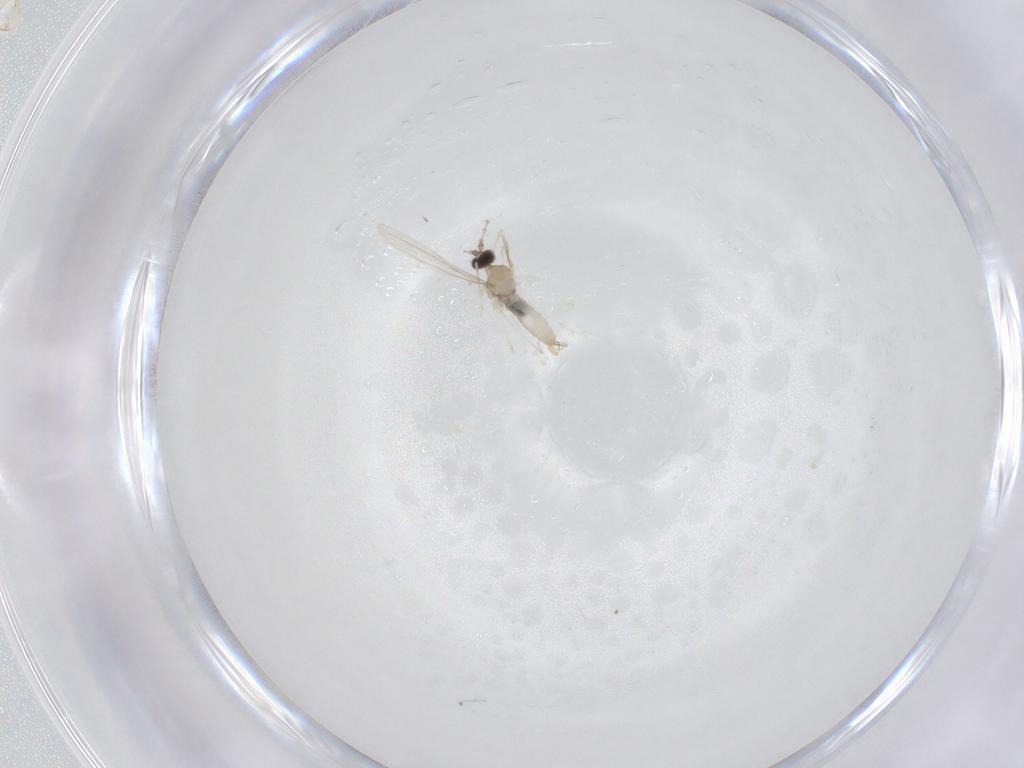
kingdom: Animalia
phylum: Arthropoda
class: Insecta
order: Diptera
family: Cecidomyiidae
